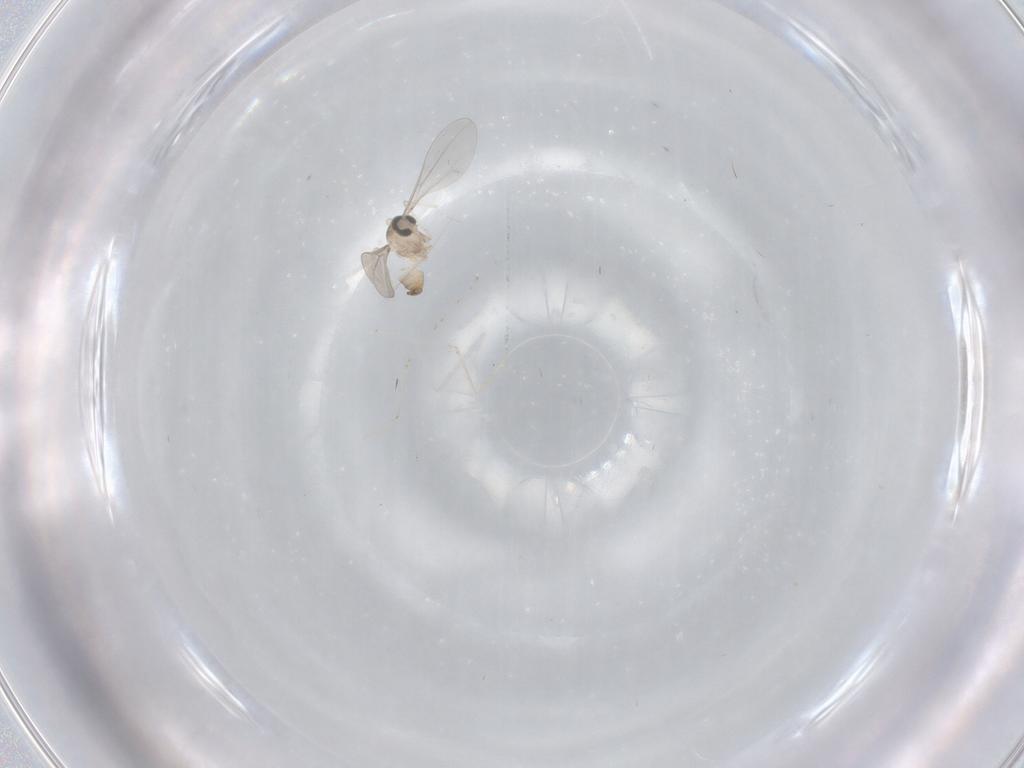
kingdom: Animalia
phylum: Arthropoda
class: Insecta
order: Diptera
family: Cecidomyiidae
